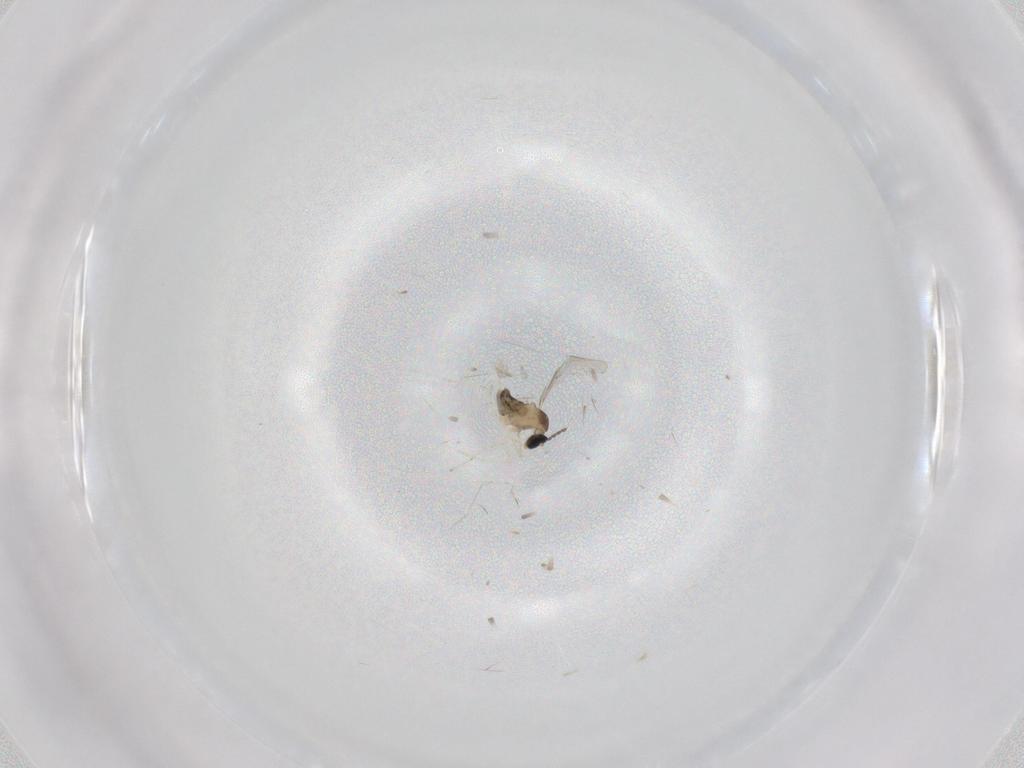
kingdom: Animalia
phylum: Arthropoda
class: Insecta
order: Diptera
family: Cecidomyiidae
